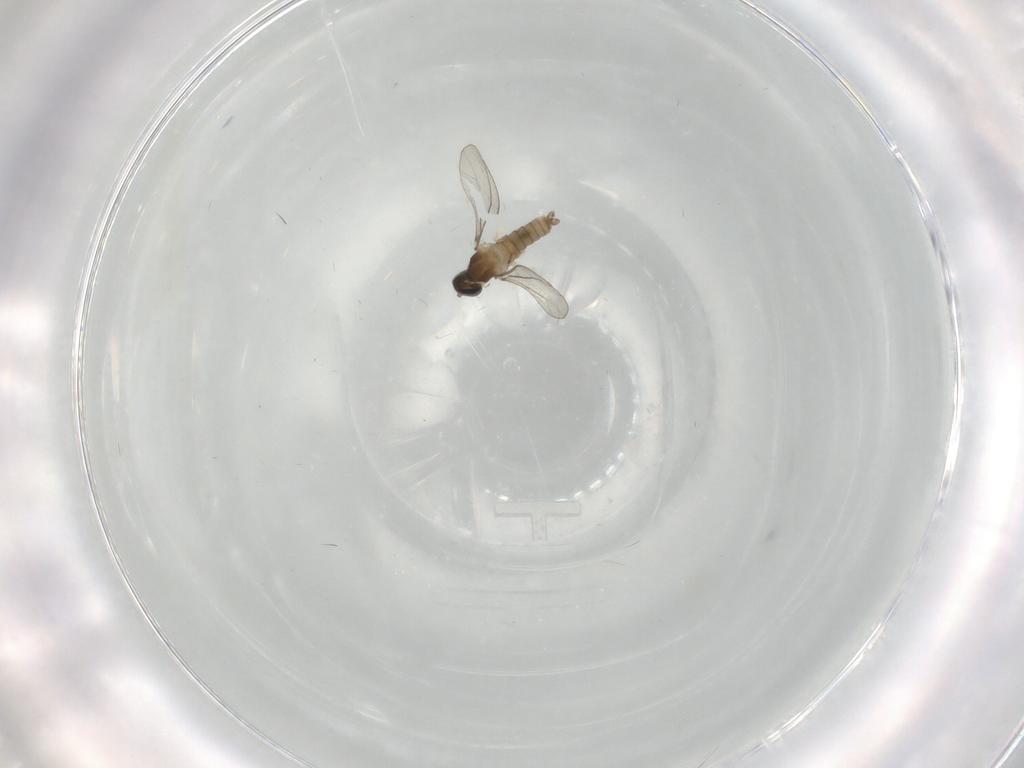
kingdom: Animalia
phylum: Arthropoda
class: Insecta
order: Diptera
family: Cecidomyiidae
